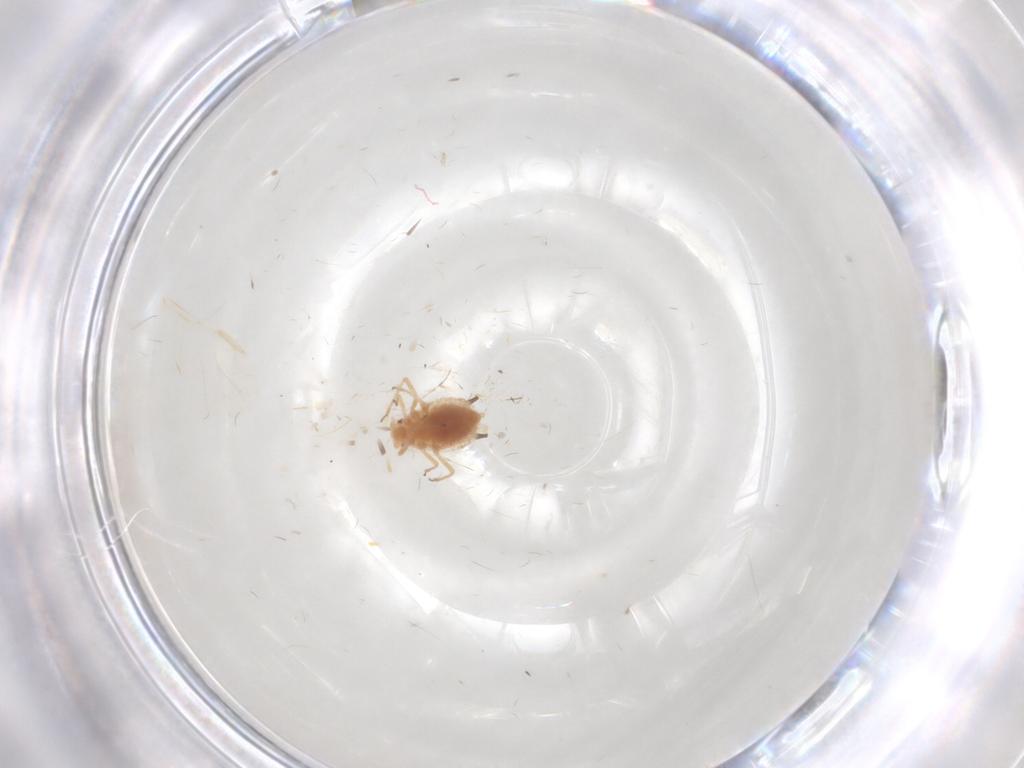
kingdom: Animalia
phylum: Arthropoda
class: Insecta
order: Hemiptera
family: Aphididae
